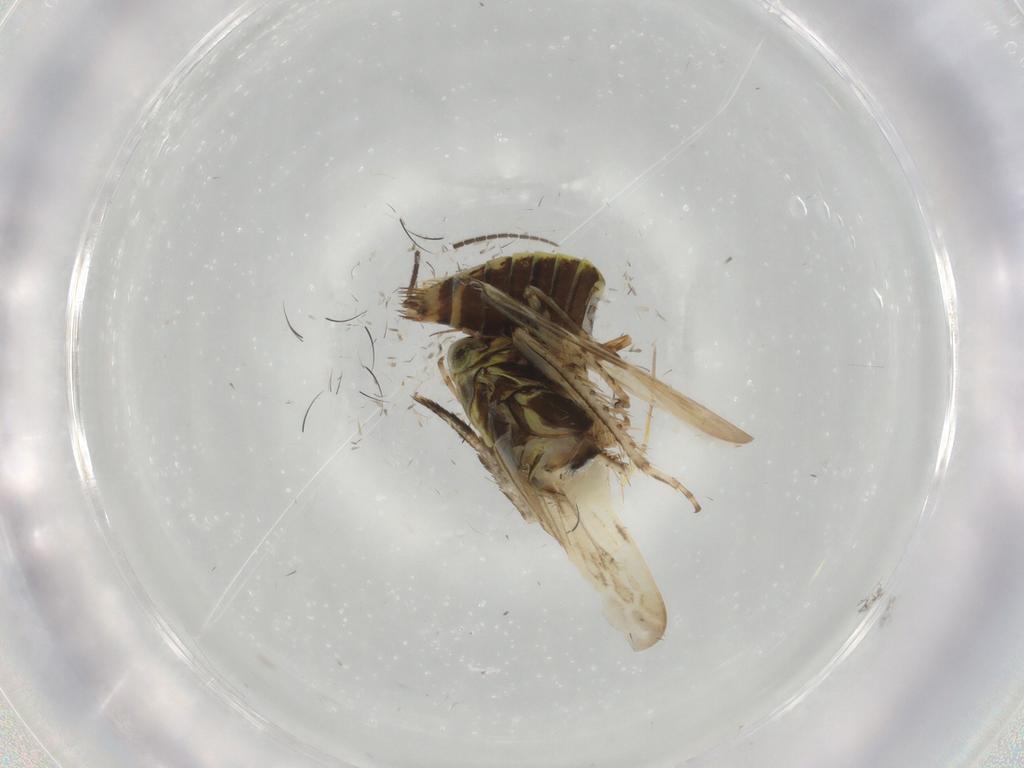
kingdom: Animalia
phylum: Arthropoda
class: Insecta
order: Hemiptera
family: Cicadellidae
